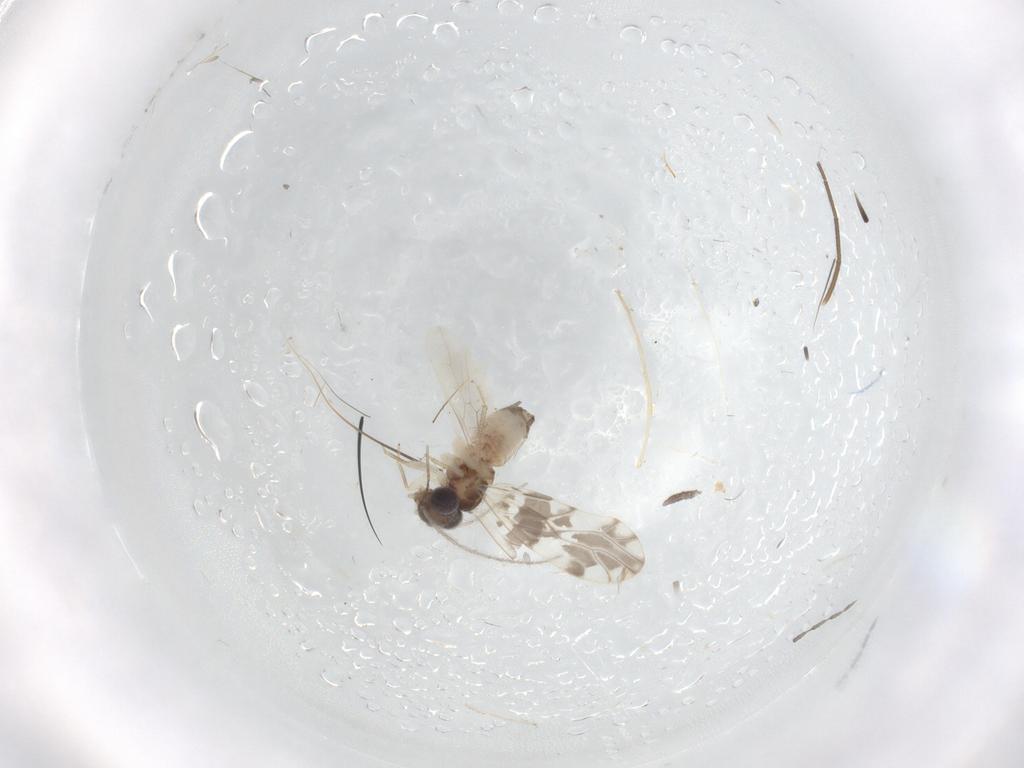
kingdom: Animalia
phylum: Arthropoda
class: Insecta
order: Psocodea
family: Ectopsocidae
